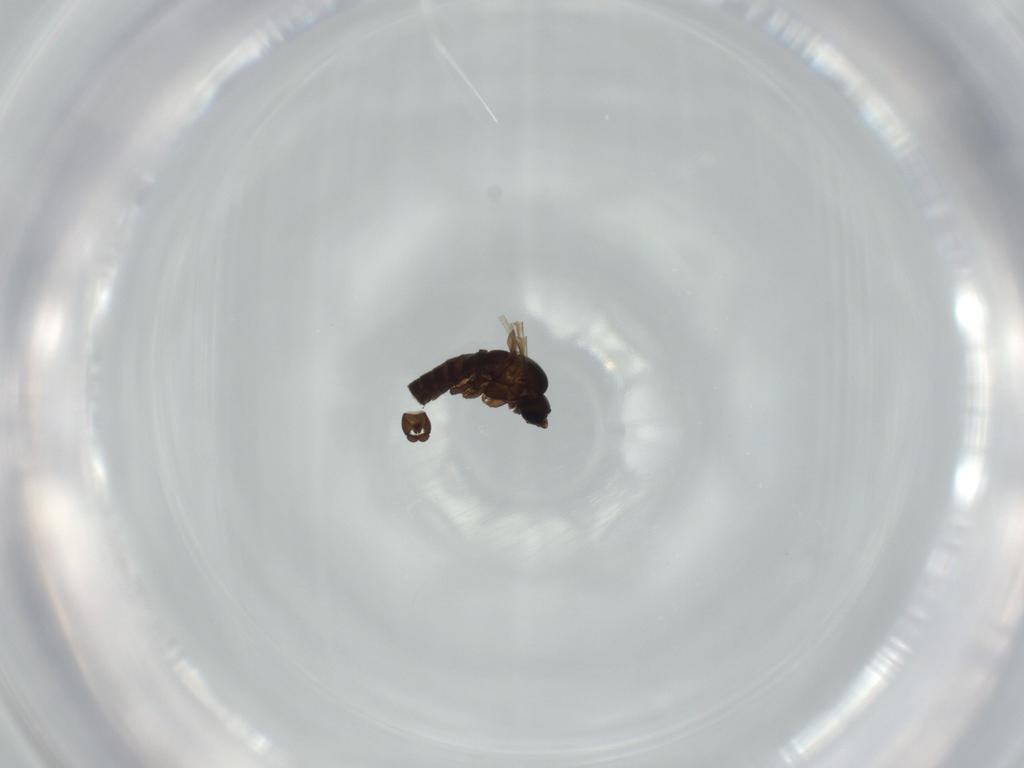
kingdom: Animalia
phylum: Arthropoda
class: Insecta
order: Diptera
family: Sciaridae
